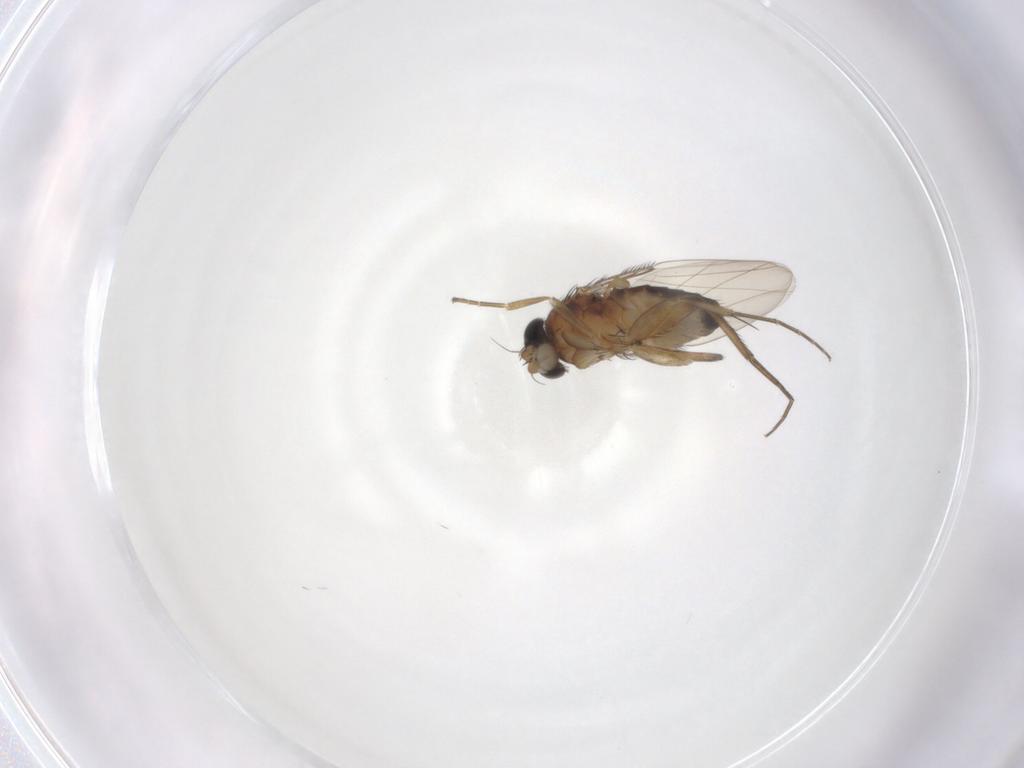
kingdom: Animalia
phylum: Arthropoda
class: Insecta
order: Diptera
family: Phoridae
